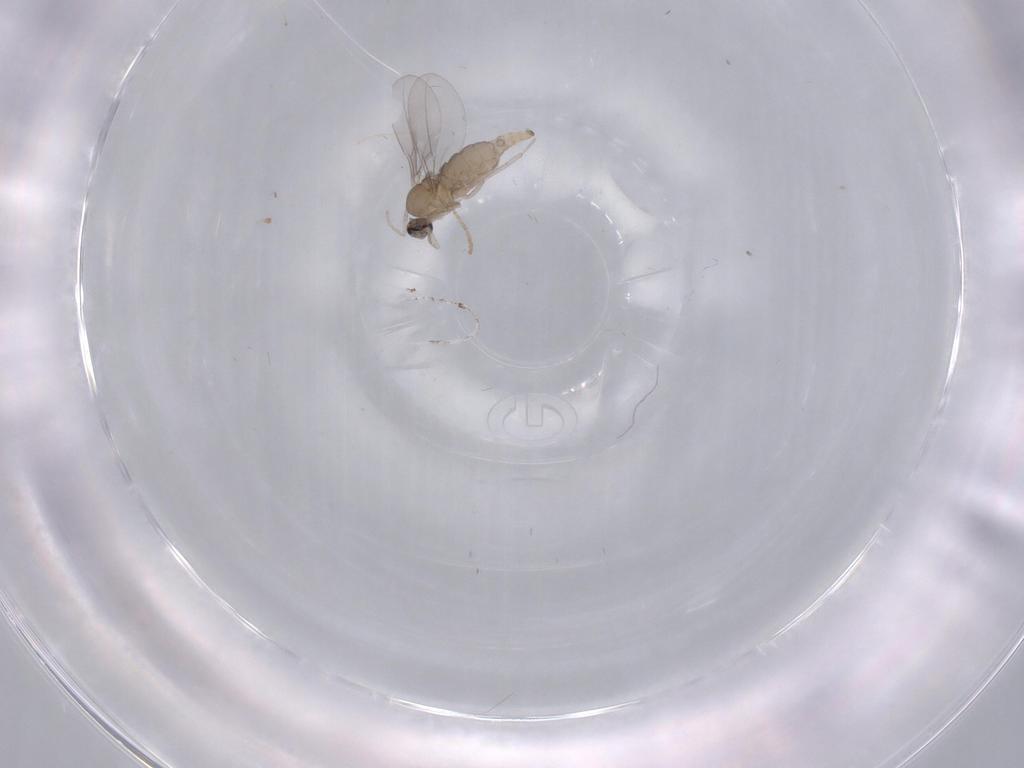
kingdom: Animalia
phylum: Arthropoda
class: Insecta
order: Diptera
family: Cecidomyiidae
